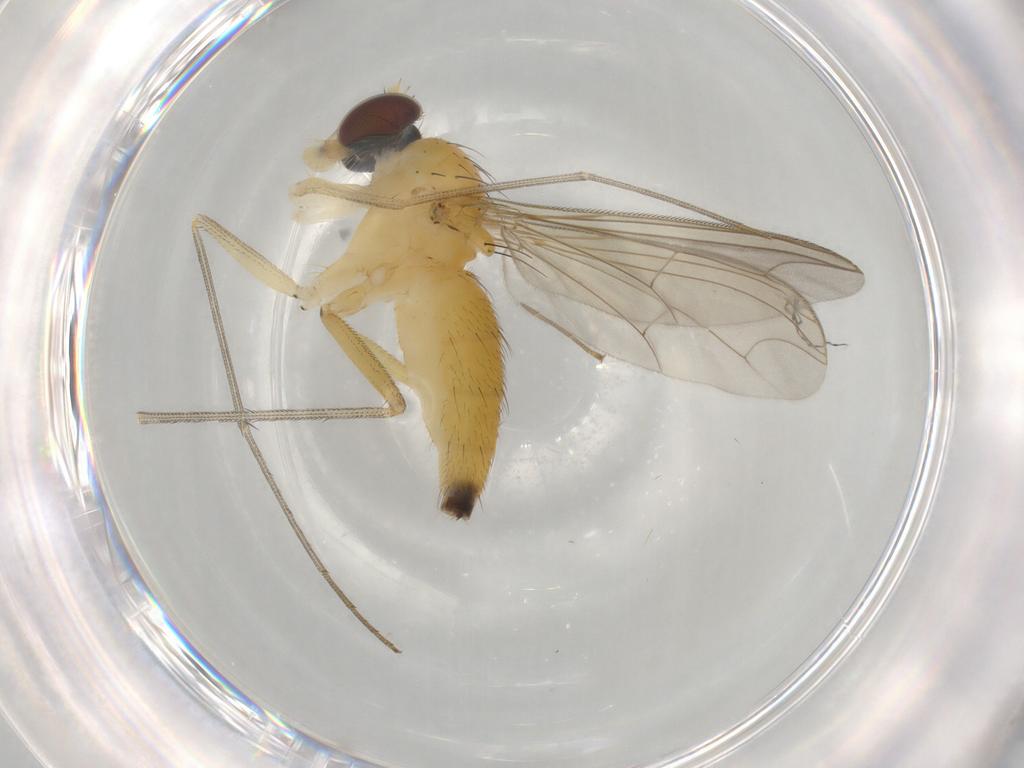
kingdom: Animalia
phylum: Arthropoda
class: Insecta
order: Diptera
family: Dolichopodidae
